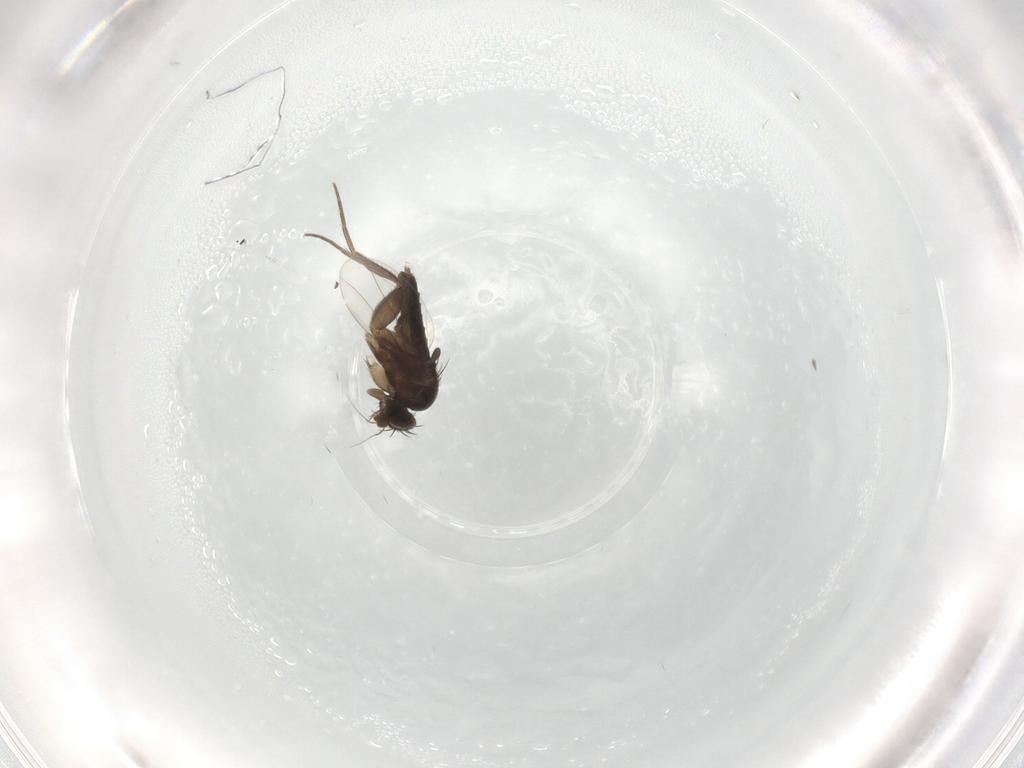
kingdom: Animalia
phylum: Arthropoda
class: Insecta
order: Diptera
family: Phoridae
